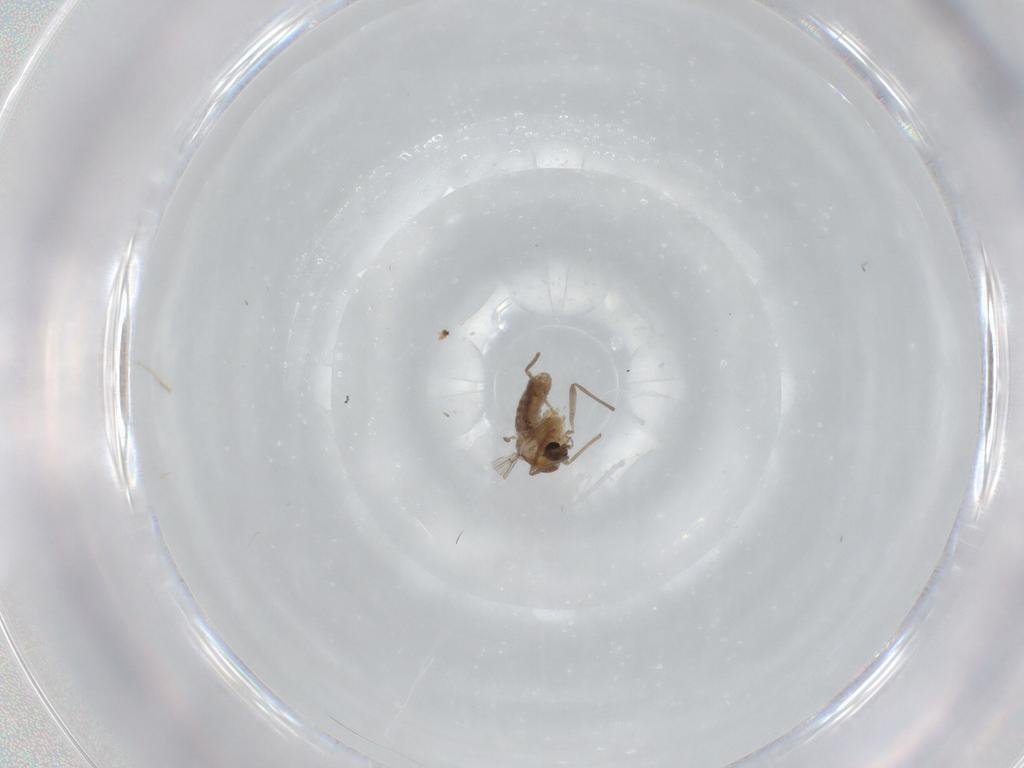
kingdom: Animalia
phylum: Arthropoda
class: Insecta
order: Diptera
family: Chironomidae
